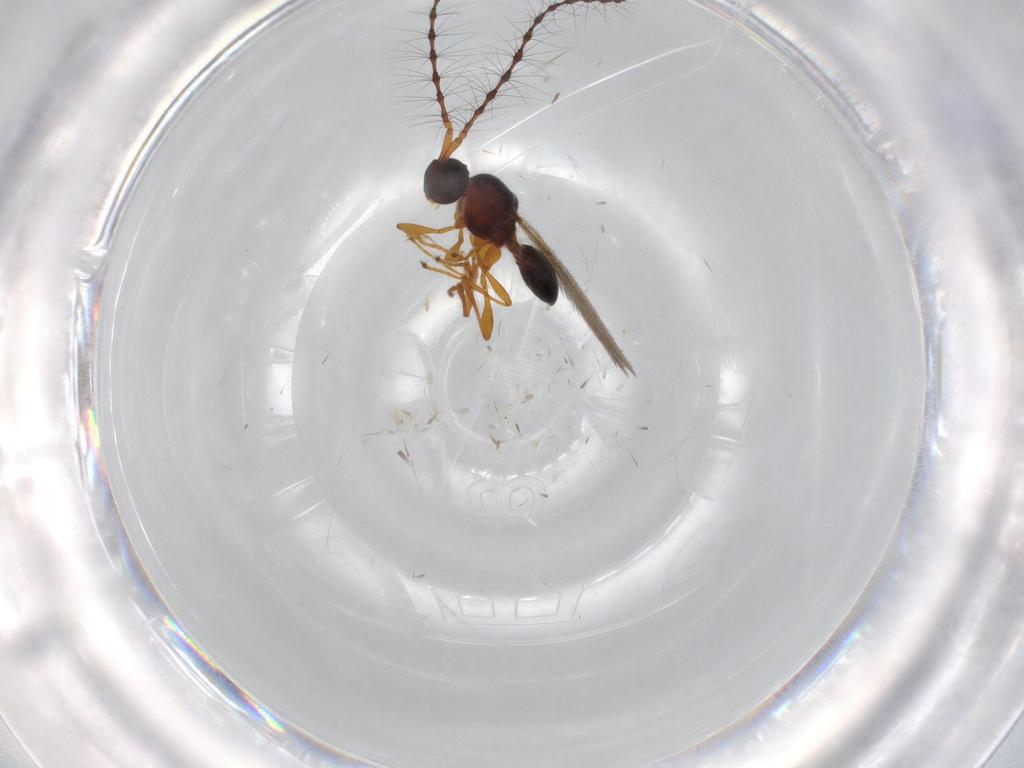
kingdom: Animalia
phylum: Arthropoda
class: Insecta
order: Hymenoptera
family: Diapriidae
